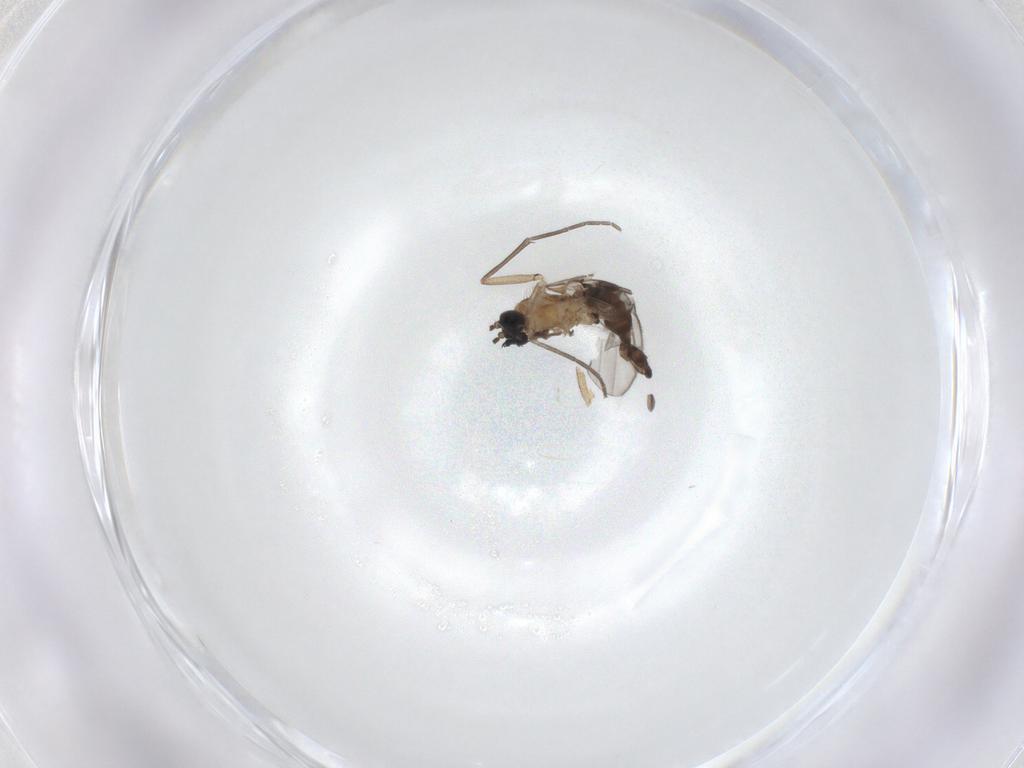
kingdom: Animalia
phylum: Arthropoda
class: Insecta
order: Diptera
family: Sciaridae
